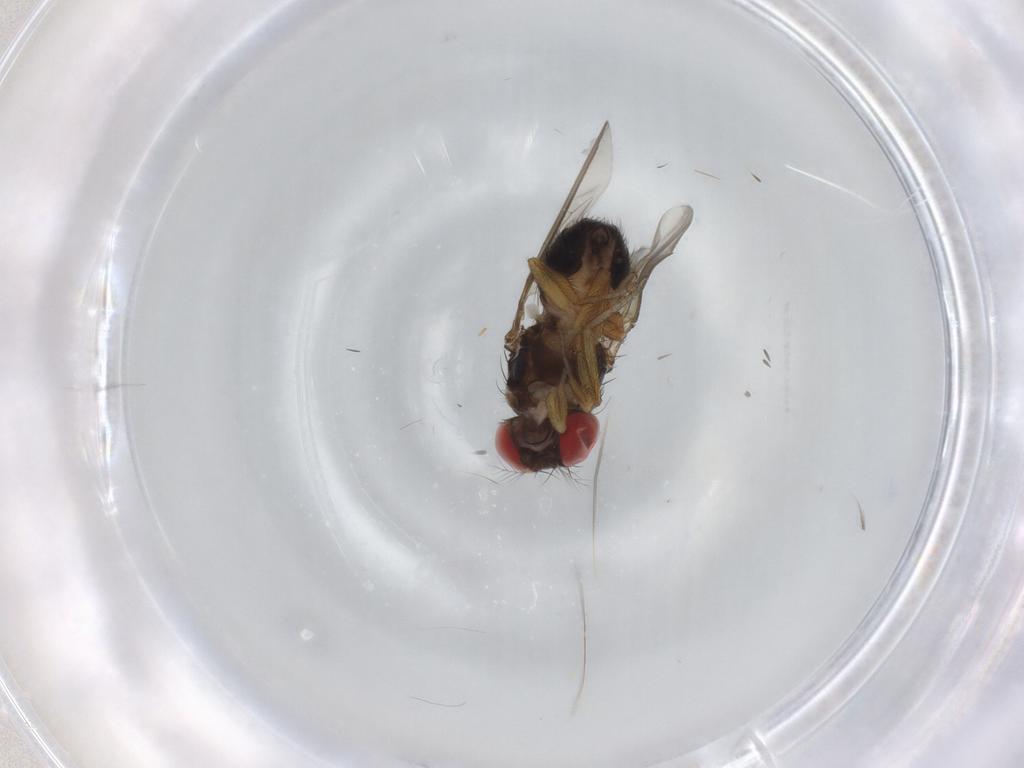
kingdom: Animalia
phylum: Arthropoda
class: Insecta
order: Diptera
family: Drosophilidae
